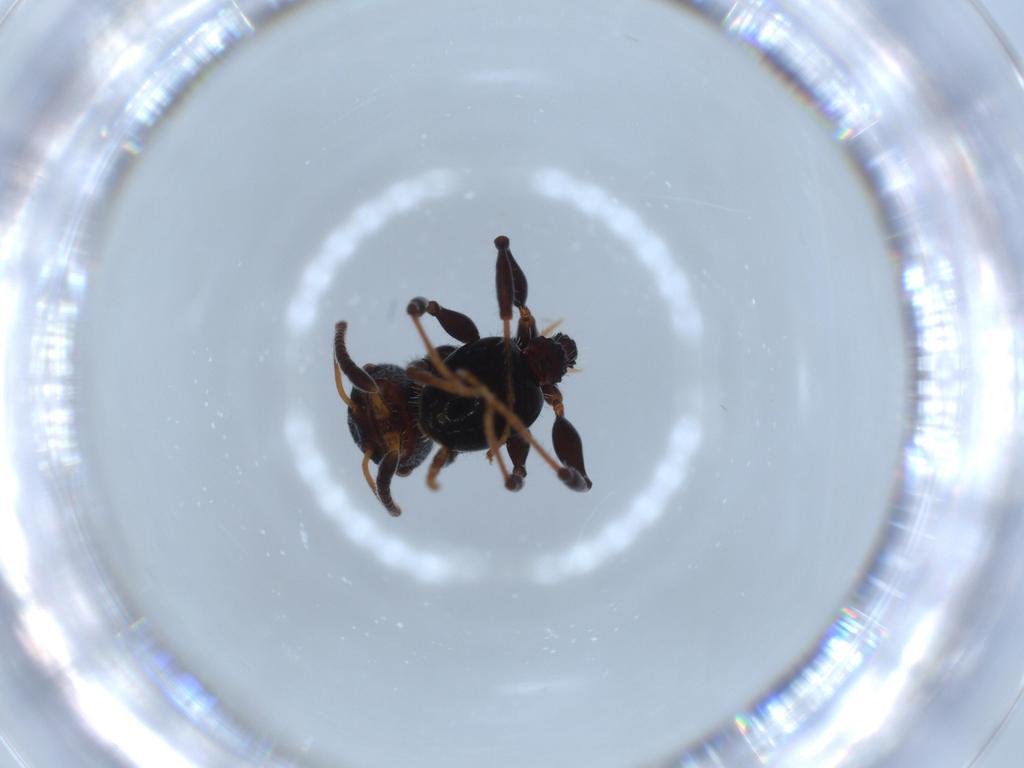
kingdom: Animalia
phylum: Arthropoda
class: Insecta
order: Hymenoptera
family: Formicidae
